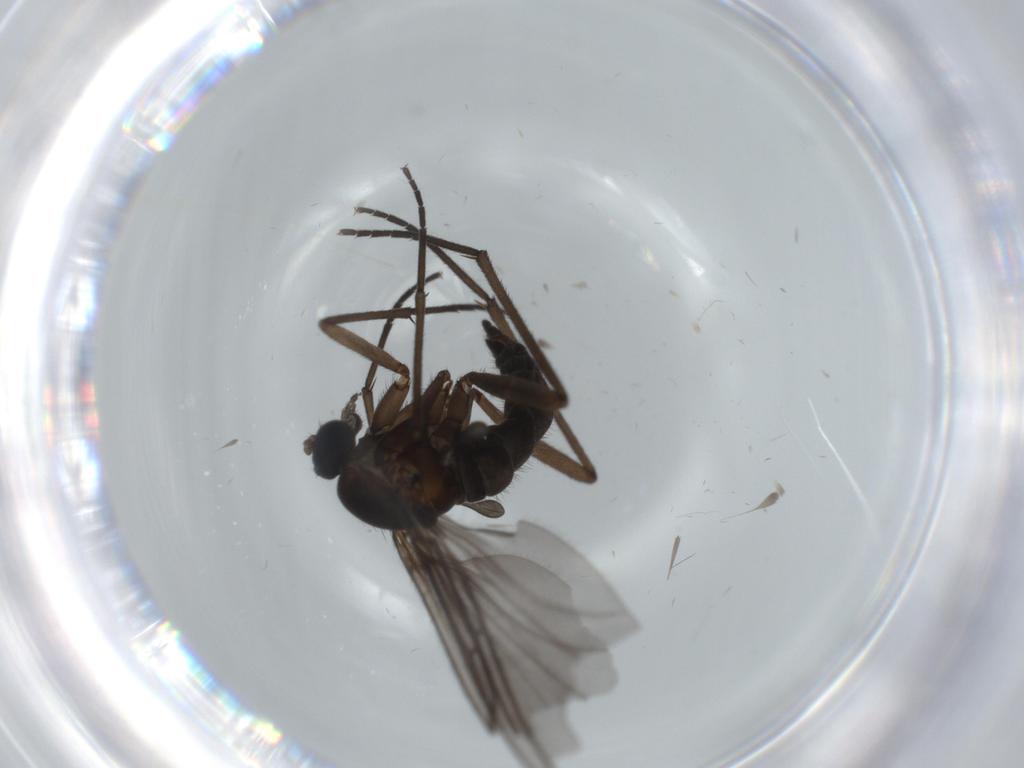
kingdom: Animalia
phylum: Arthropoda
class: Insecta
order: Diptera
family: Sciaridae
